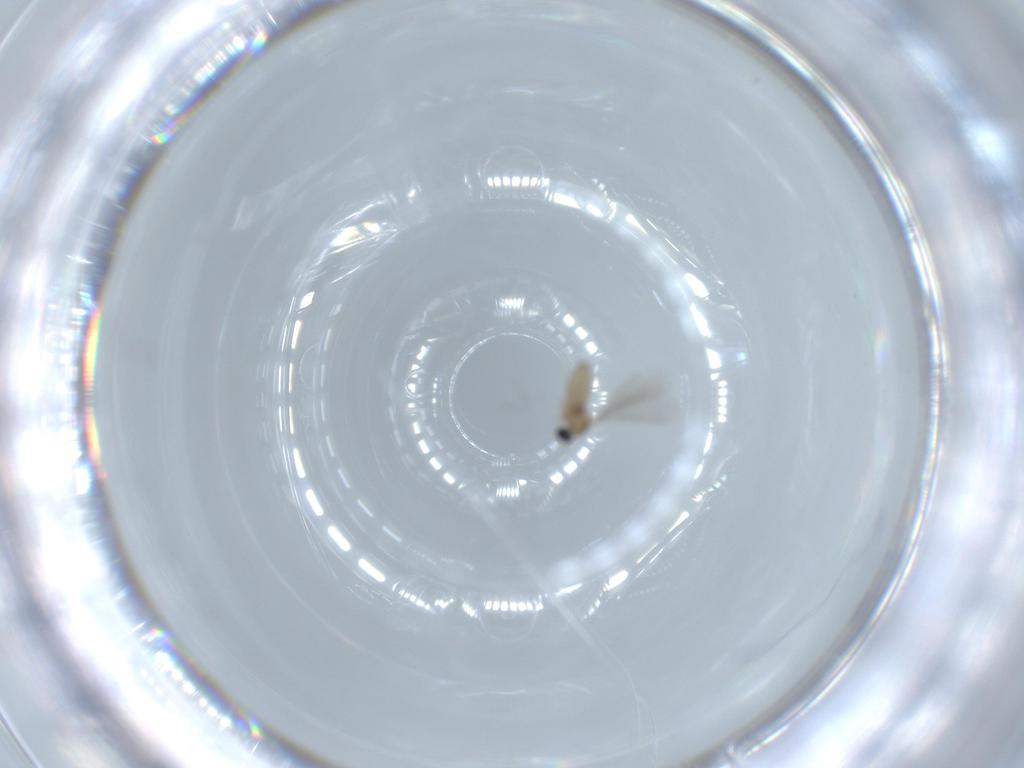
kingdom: Animalia
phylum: Arthropoda
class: Insecta
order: Diptera
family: Cecidomyiidae
